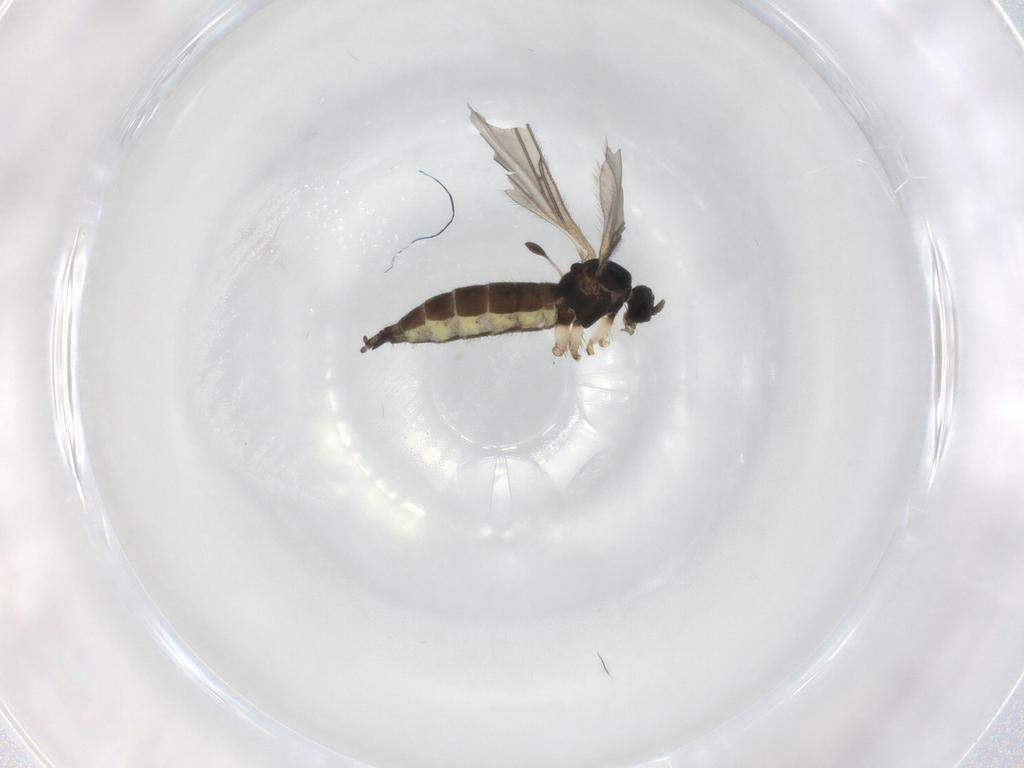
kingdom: Animalia
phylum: Arthropoda
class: Insecta
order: Diptera
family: Sciaridae
